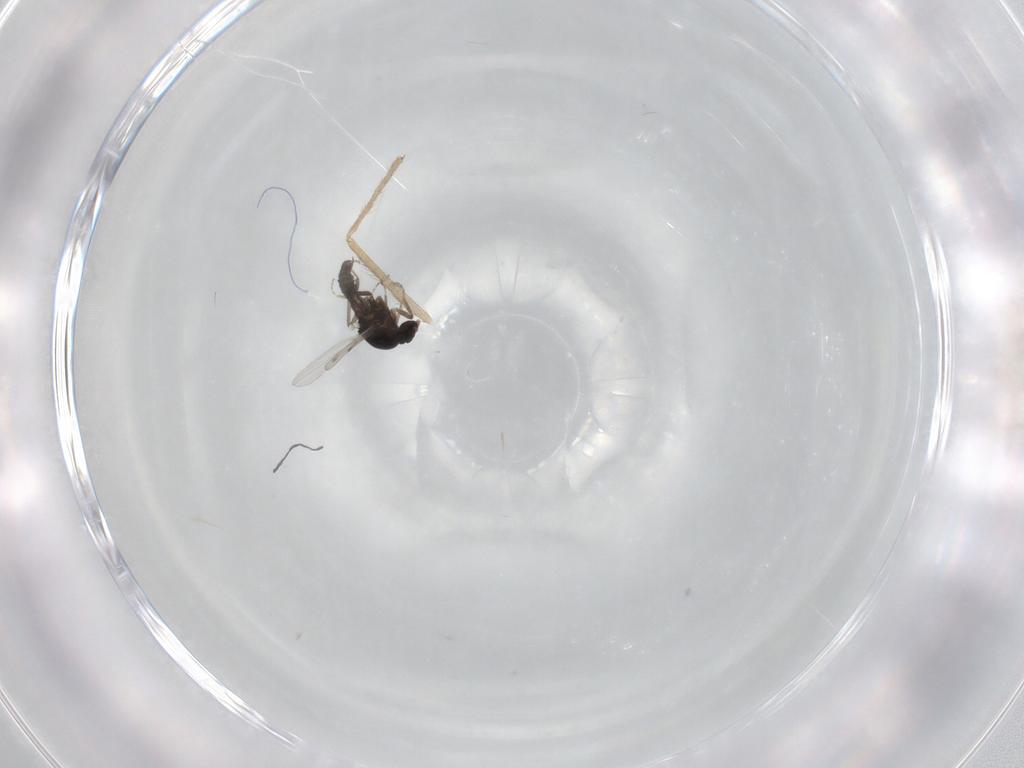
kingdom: Animalia
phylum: Arthropoda
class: Insecta
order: Diptera
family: Ceratopogonidae
